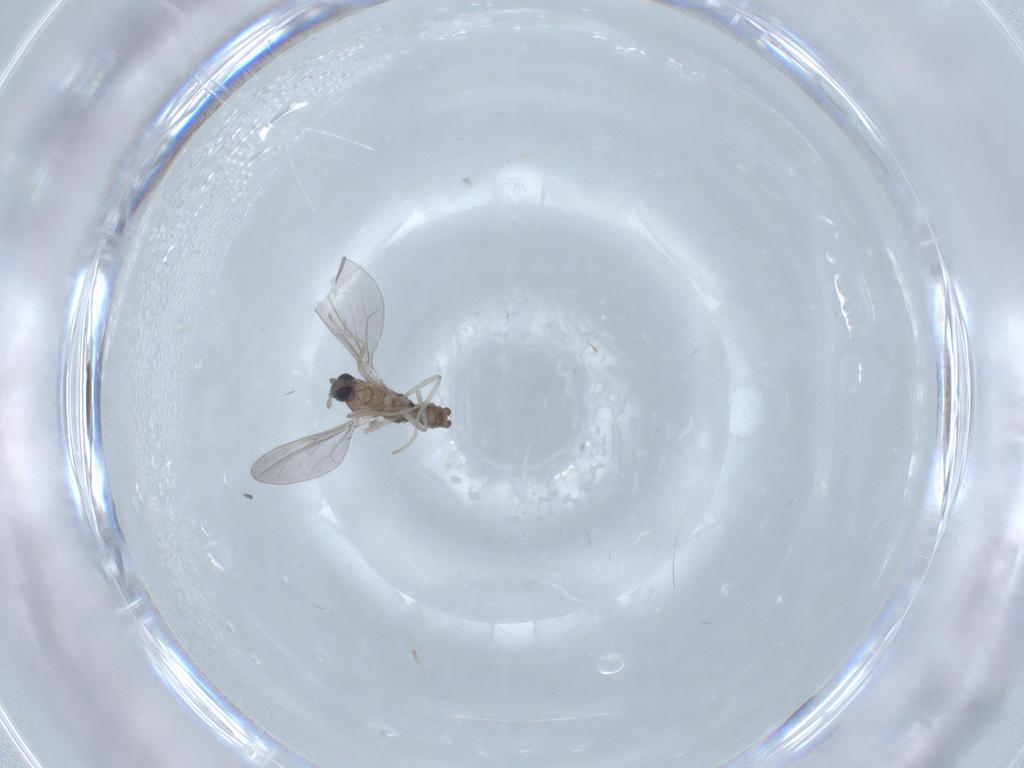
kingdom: Animalia
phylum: Arthropoda
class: Insecta
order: Diptera
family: Cecidomyiidae
